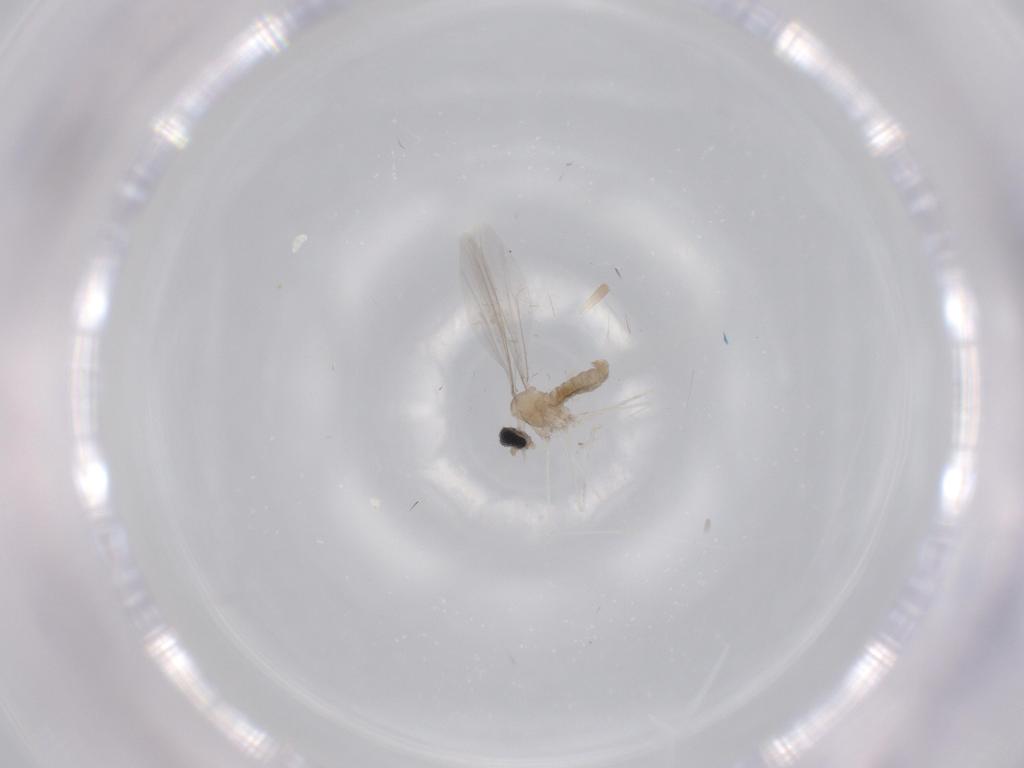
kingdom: Animalia
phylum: Arthropoda
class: Insecta
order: Diptera
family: Cecidomyiidae
